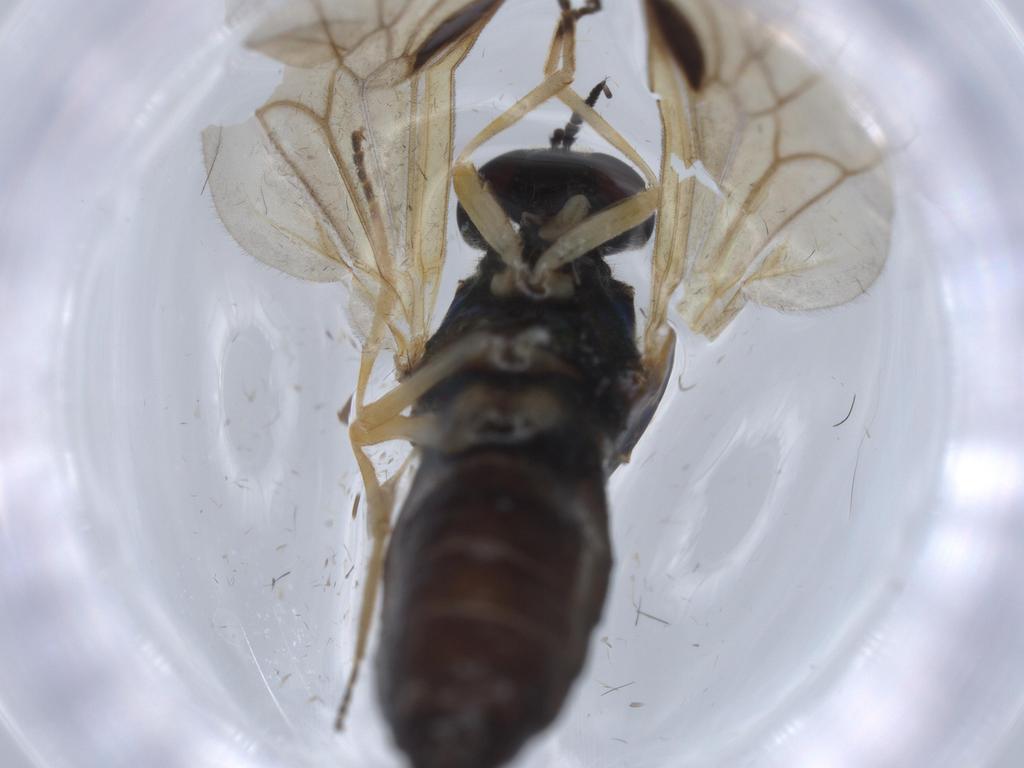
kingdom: Animalia
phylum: Arthropoda
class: Insecta
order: Diptera
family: Stratiomyidae
